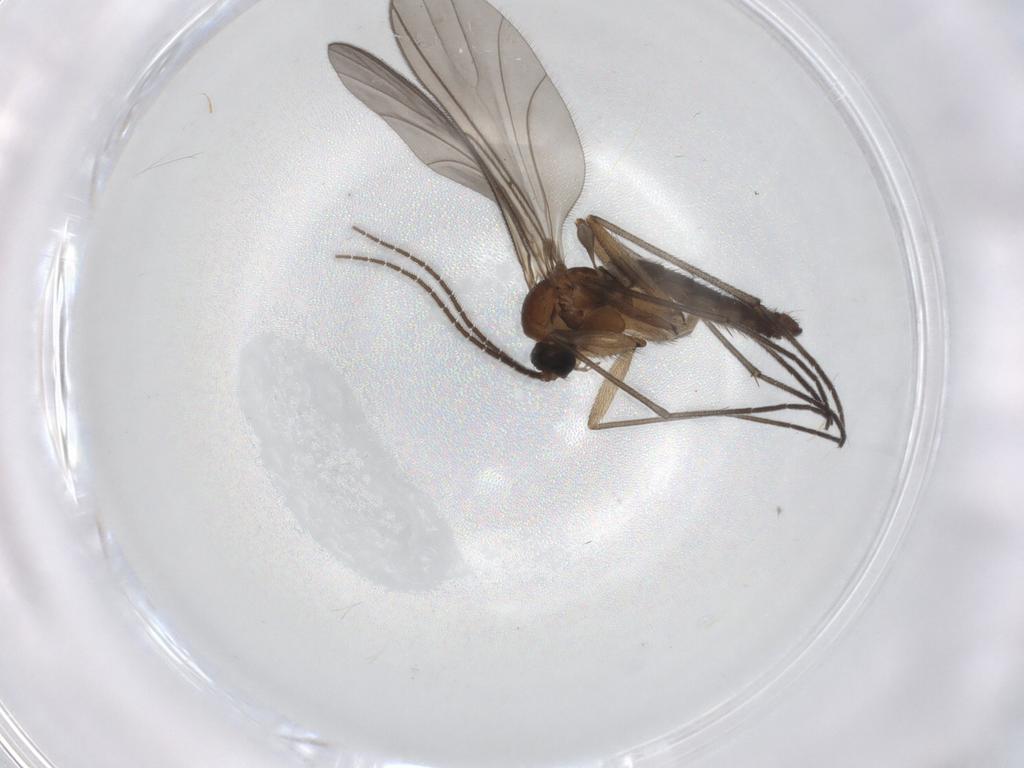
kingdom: Animalia
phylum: Arthropoda
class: Insecta
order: Diptera
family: Sciaridae
